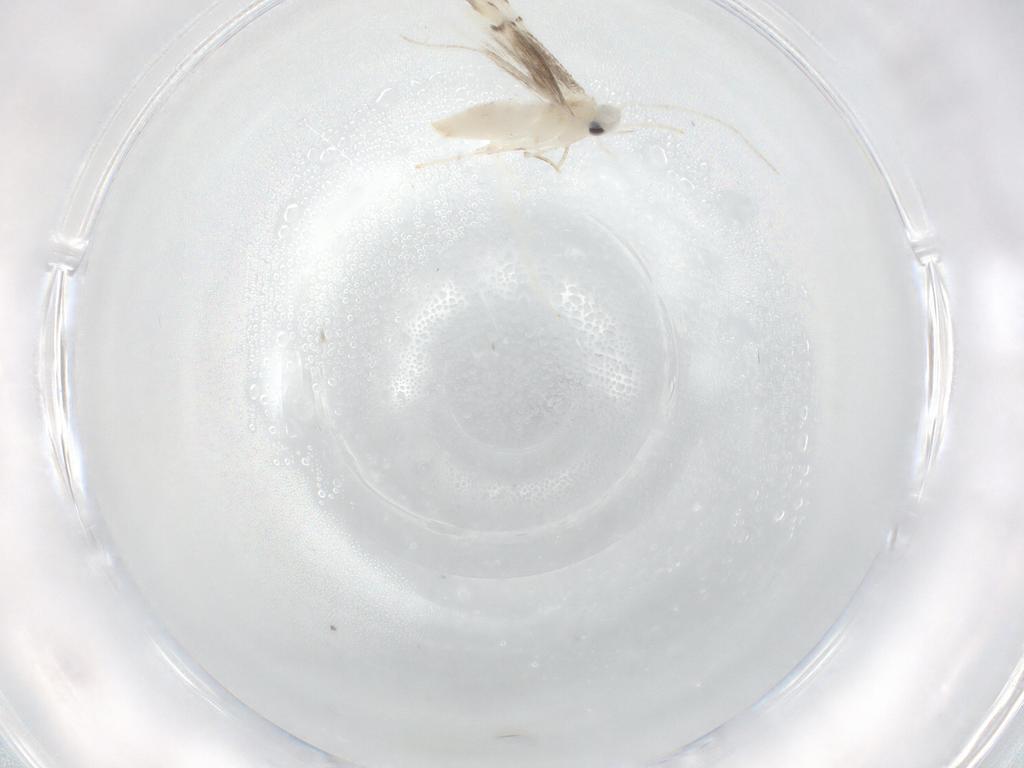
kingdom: Animalia
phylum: Arthropoda
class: Insecta
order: Lepidoptera
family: Gracillariidae
